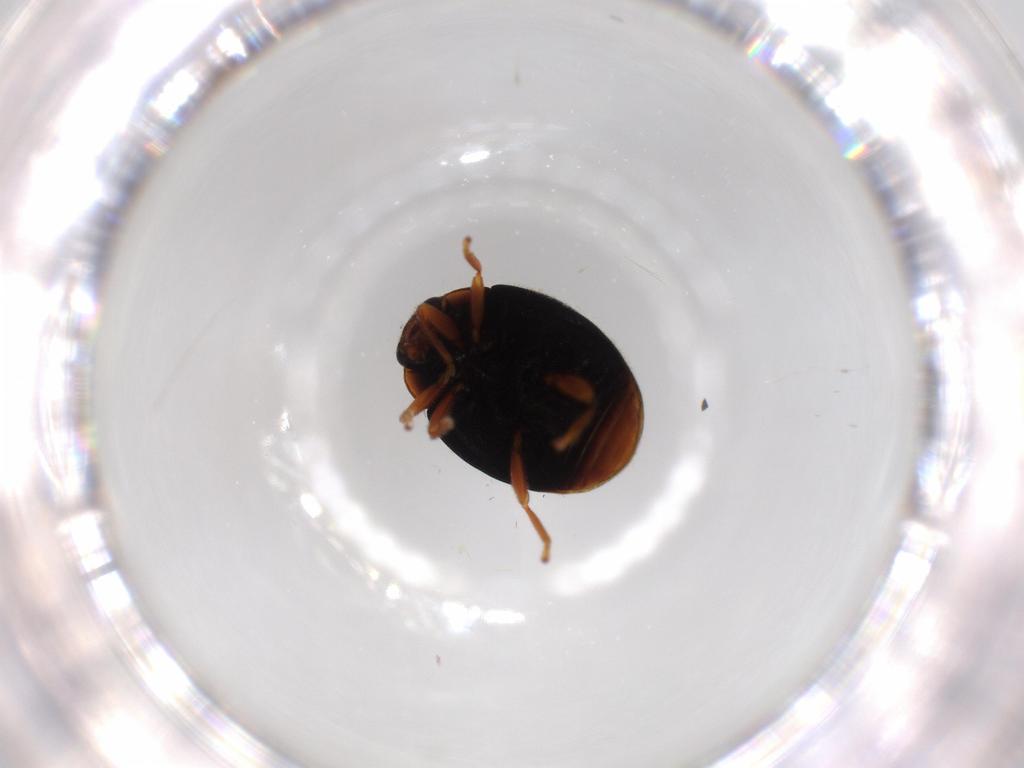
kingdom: Animalia
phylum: Arthropoda
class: Insecta
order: Coleoptera
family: Coccinellidae
